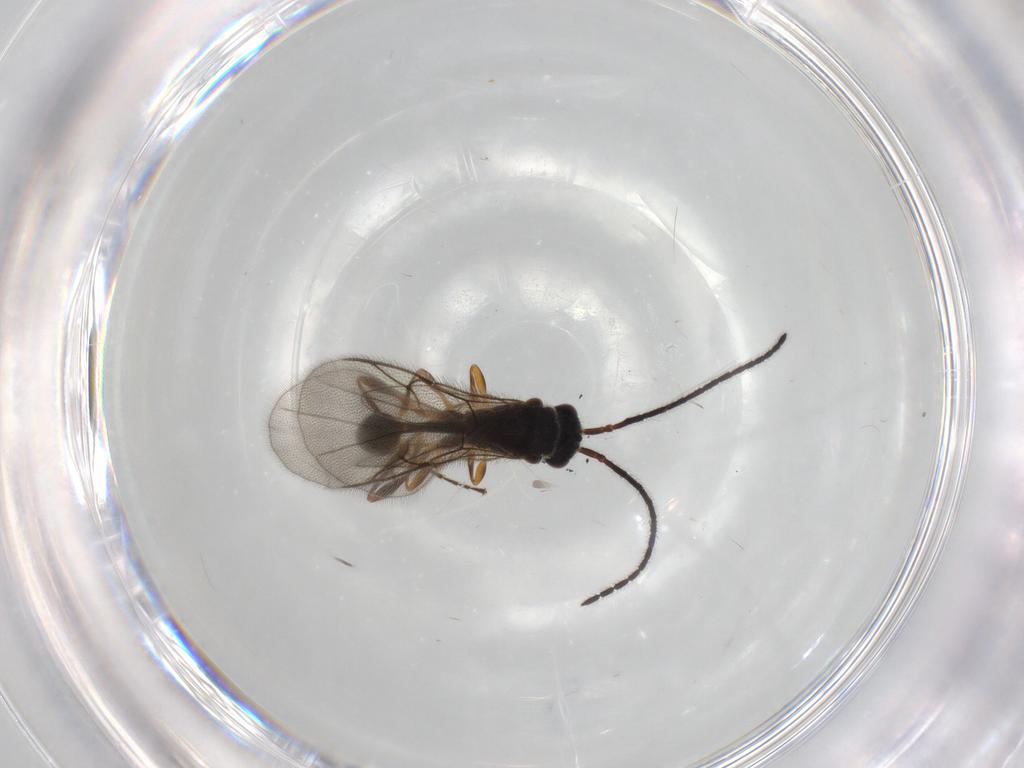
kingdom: Animalia
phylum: Arthropoda
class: Insecta
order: Hymenoptera
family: Diapriidae
